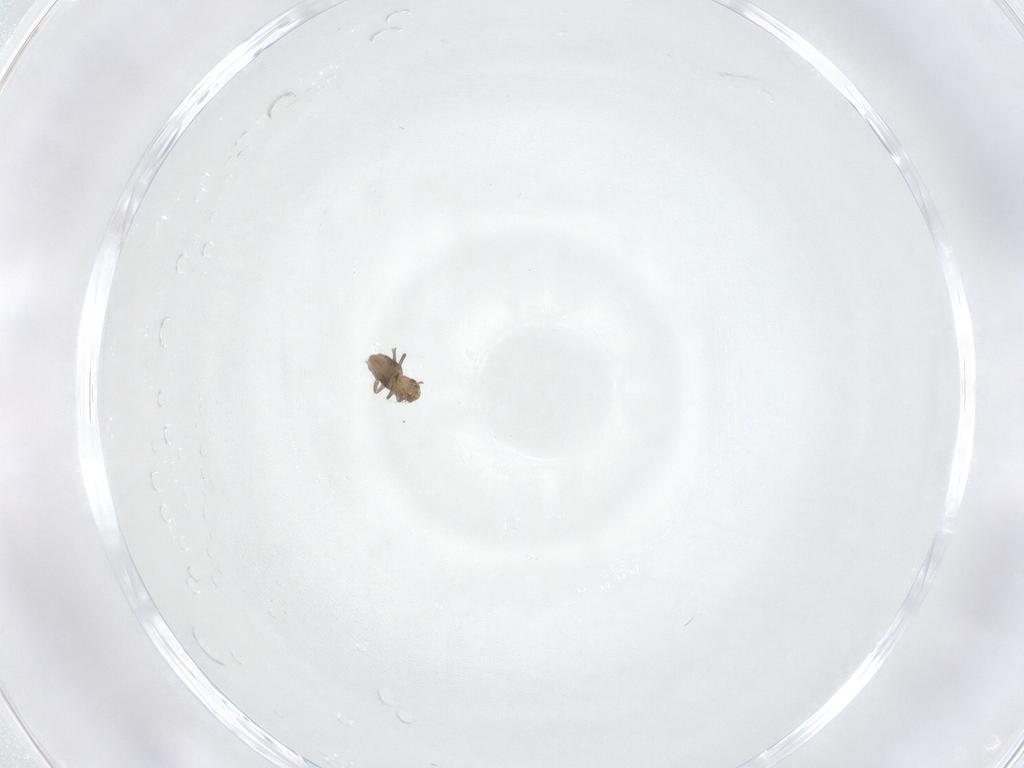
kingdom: Animalia
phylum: Arthropoda
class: Insecta
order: Diptera
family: Phoridae
